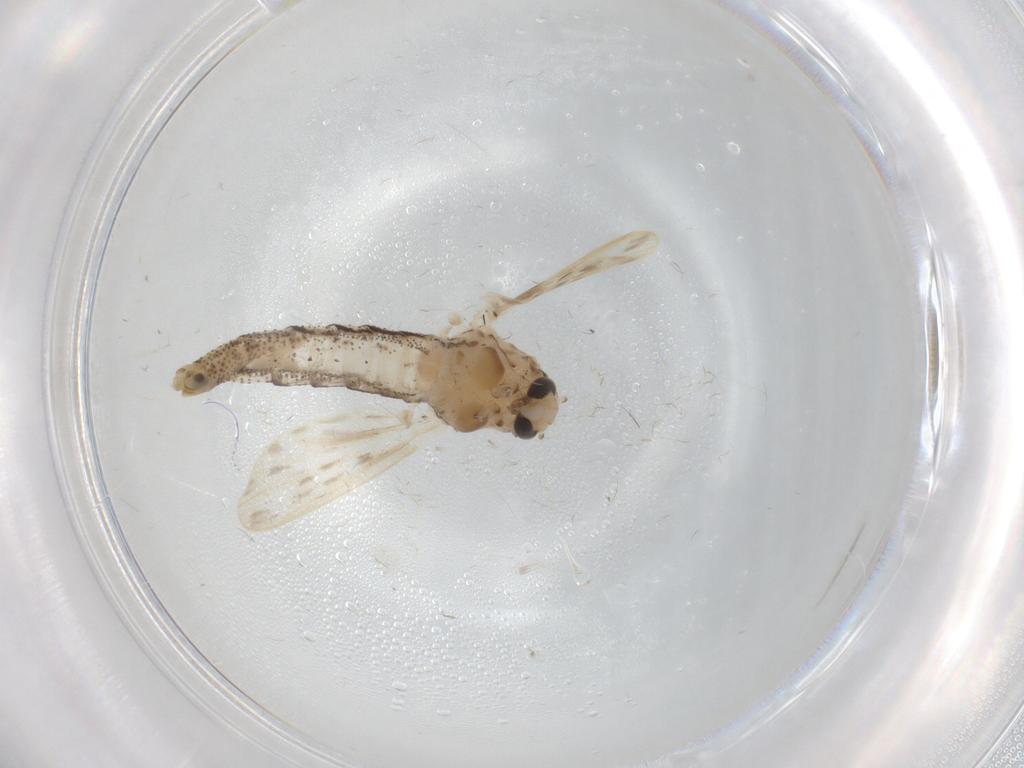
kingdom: Animalia
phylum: Arthropoda
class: Insecta
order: Diptera
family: Chaoboridae
